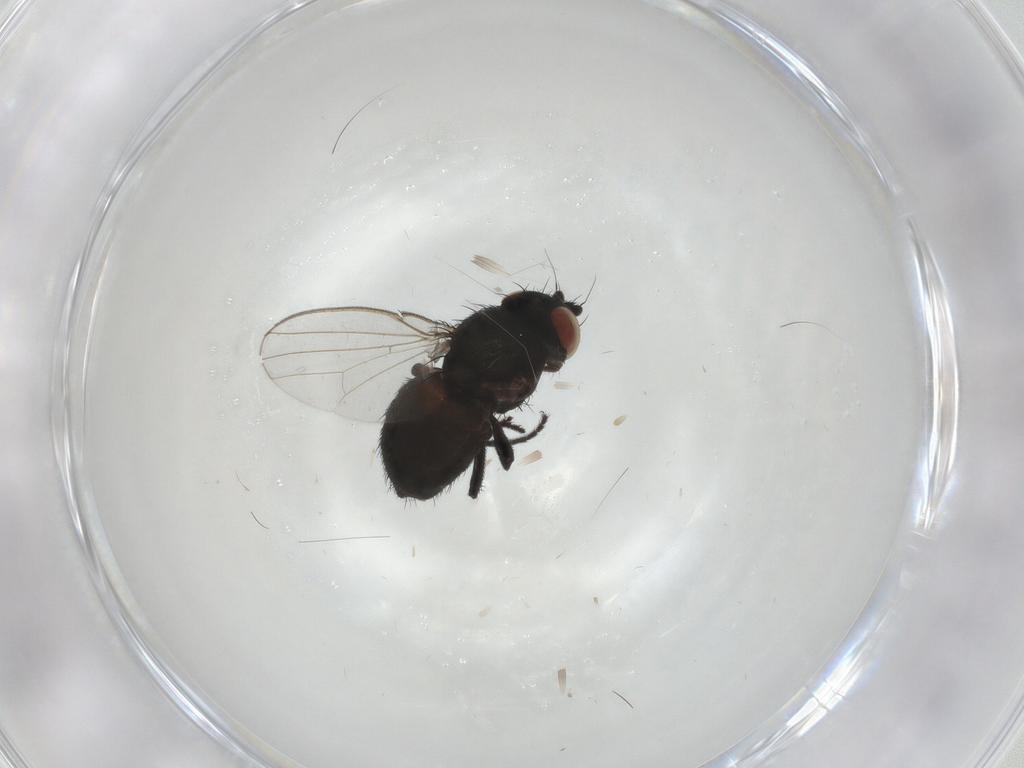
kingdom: Animalia
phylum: Arthropoda
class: Insecta
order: Diptera
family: Milichiidae
